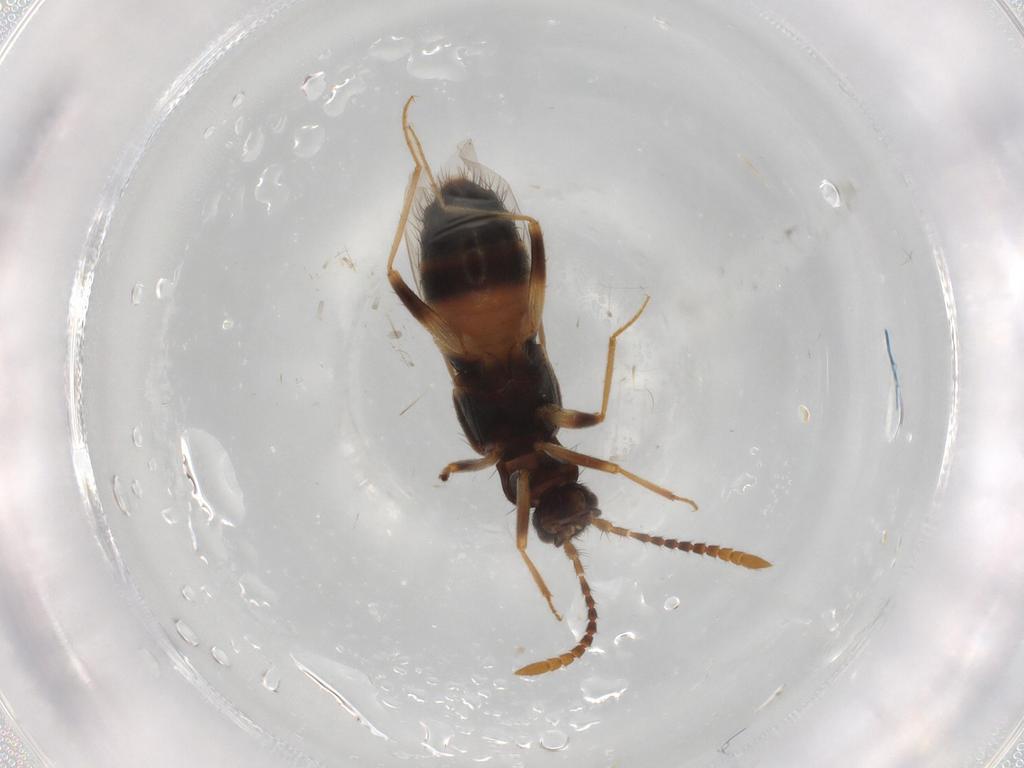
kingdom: Animalia
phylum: Arthropoda
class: Insecta
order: Coleoptera
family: Staphylinidae
